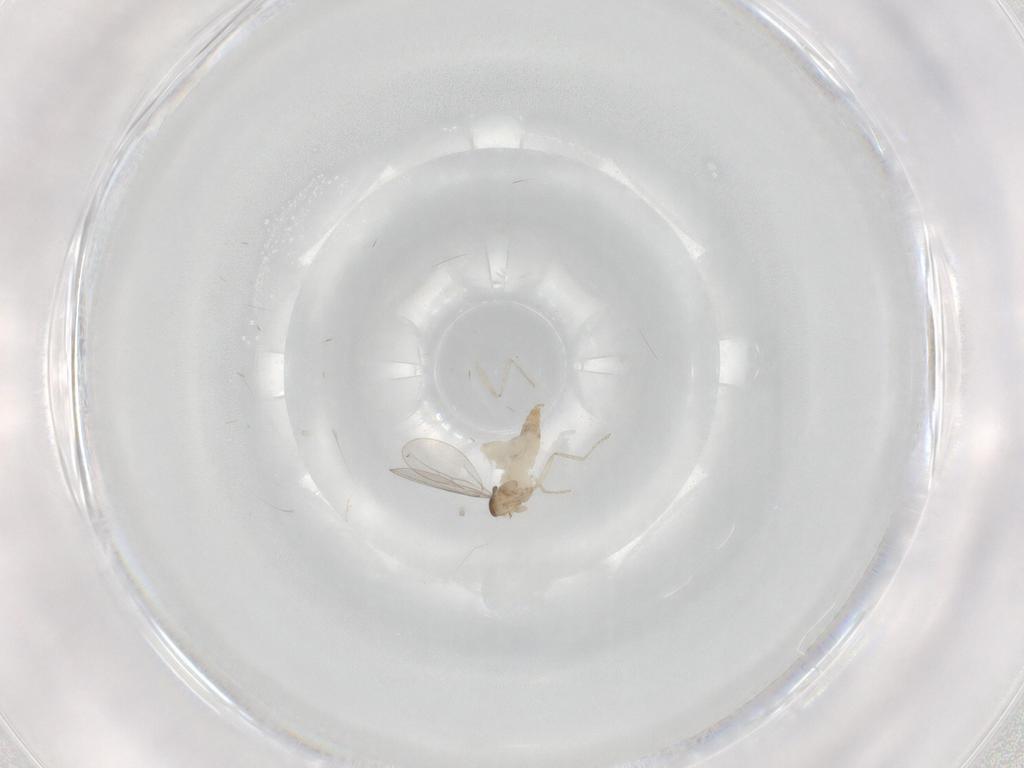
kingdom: Animalia
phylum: Arthropoda
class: Insecta
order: Diptera
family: Cecidomyiidae
